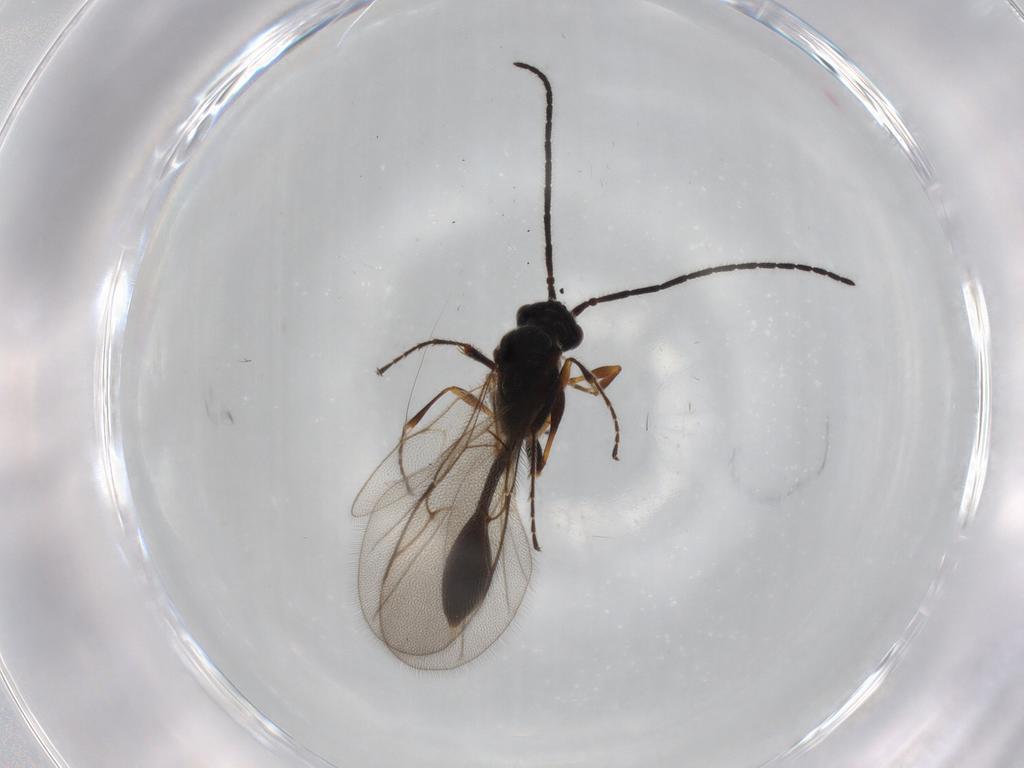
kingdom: Animalia
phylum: Arthropoda
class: Insecta
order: Hymenoptera
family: Diapriidae
